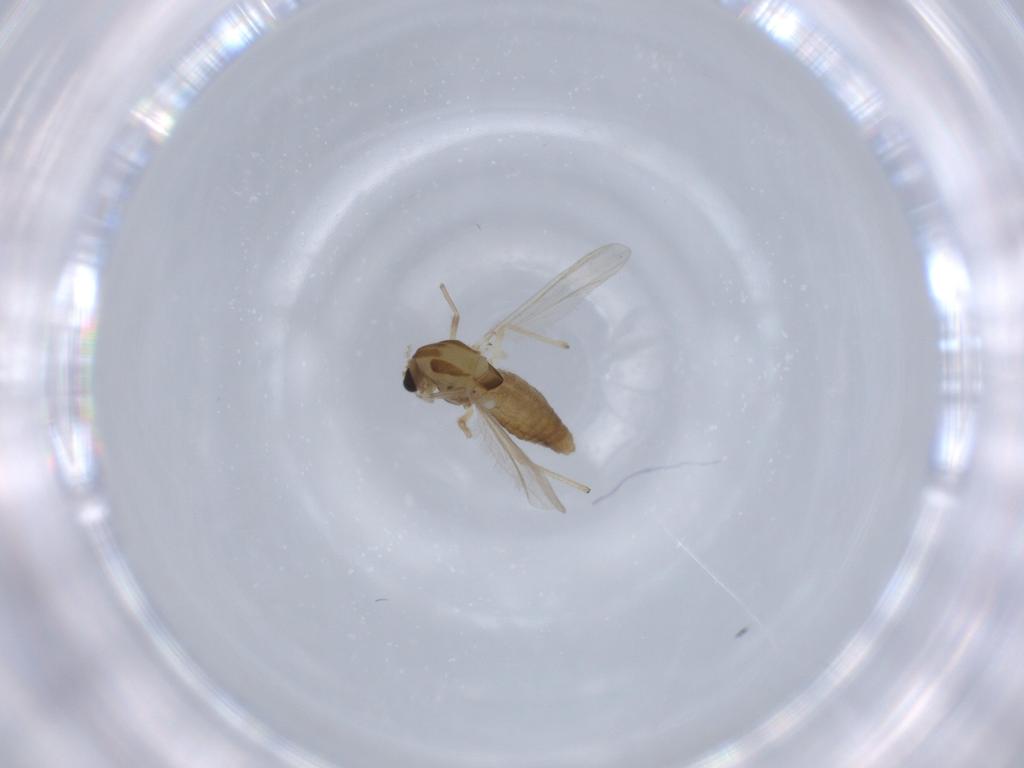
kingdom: Animalia
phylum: Arthropoda
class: Insecta
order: Diptera
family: Chironomidae
